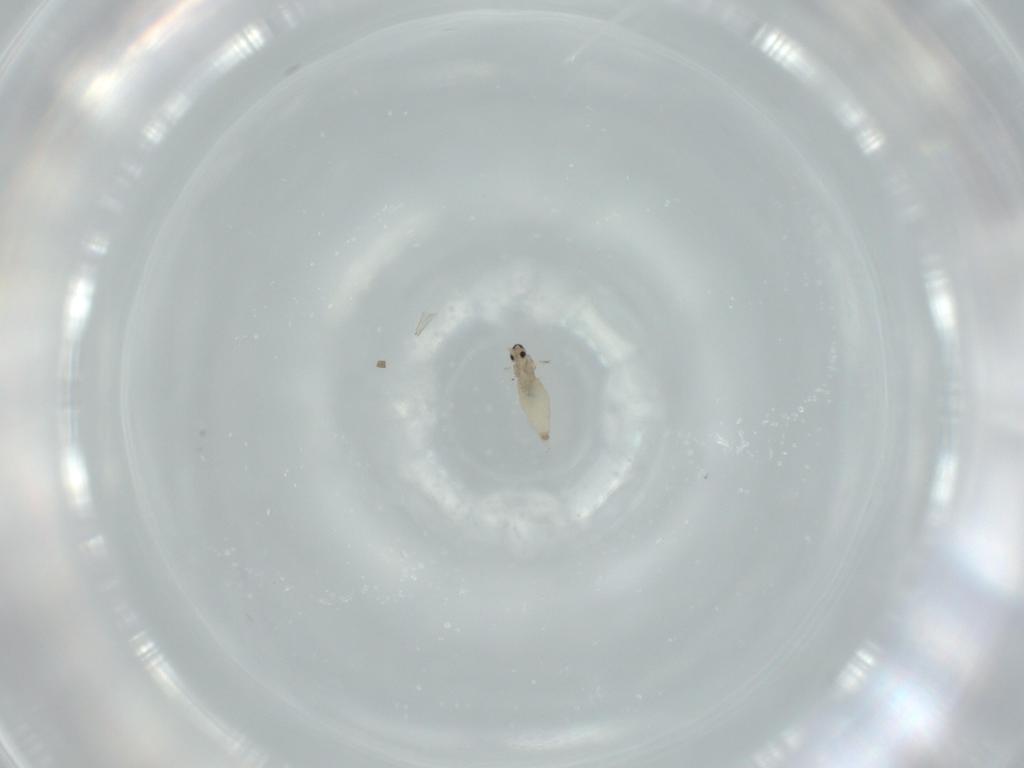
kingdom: Animalia
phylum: Arthropoda
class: Insecta
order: Diptera
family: Cecidomyiidae
